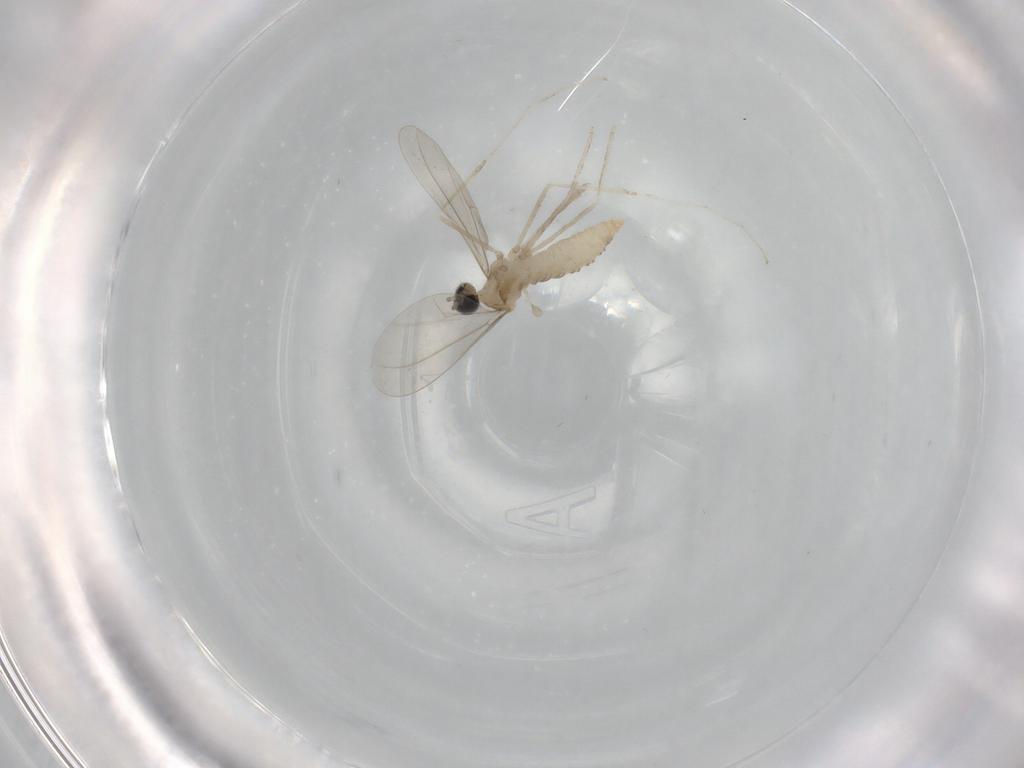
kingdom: Animalia
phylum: Arthropoda
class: Insecta
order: Diptera
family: Cecidomyiidae
